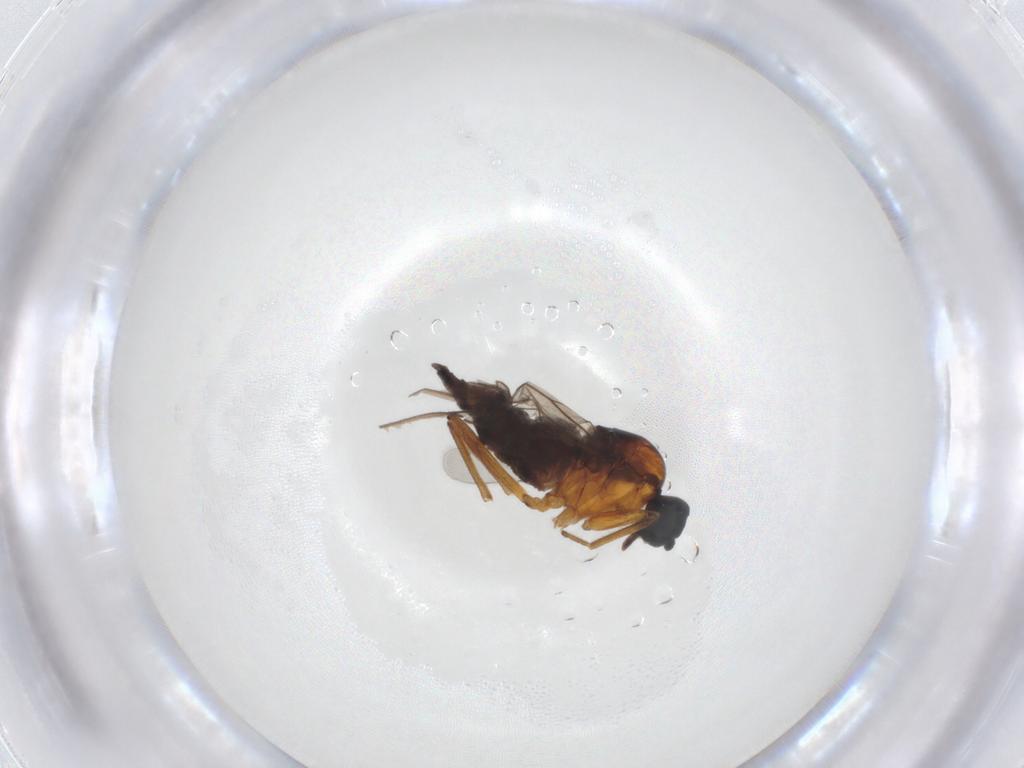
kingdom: Animalia
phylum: Arthropoda
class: Insecta
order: Diptera
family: Hybotidae
